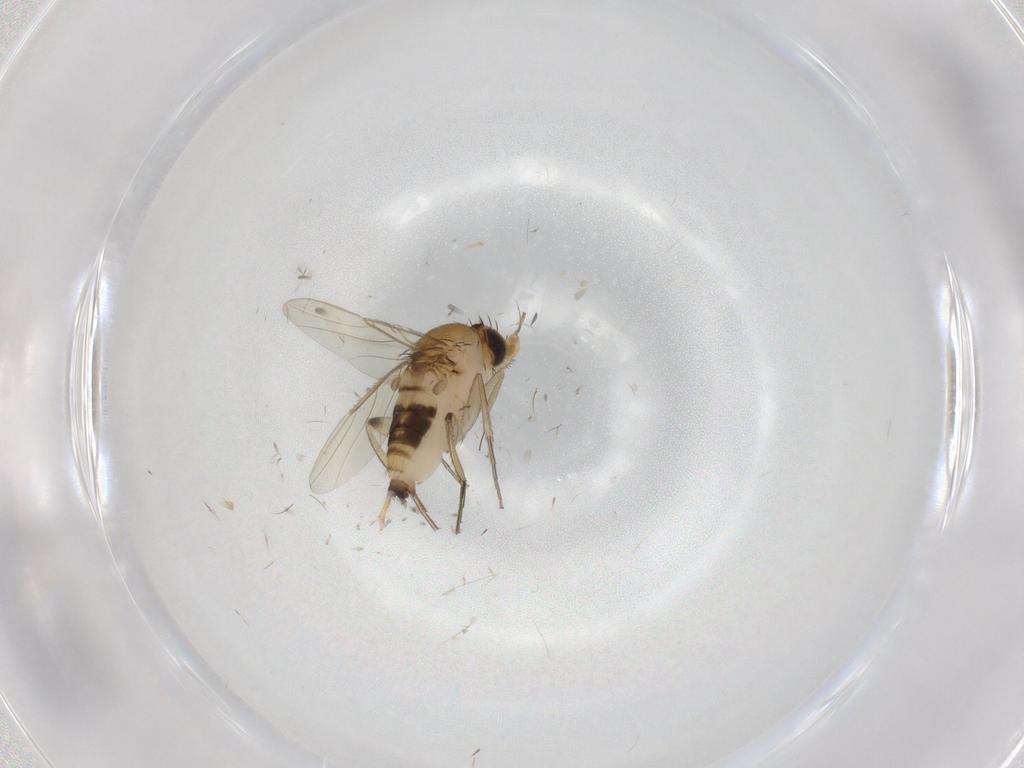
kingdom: Animalia
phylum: Arthropoda
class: Insecta
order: Diptera
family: Phoridae
